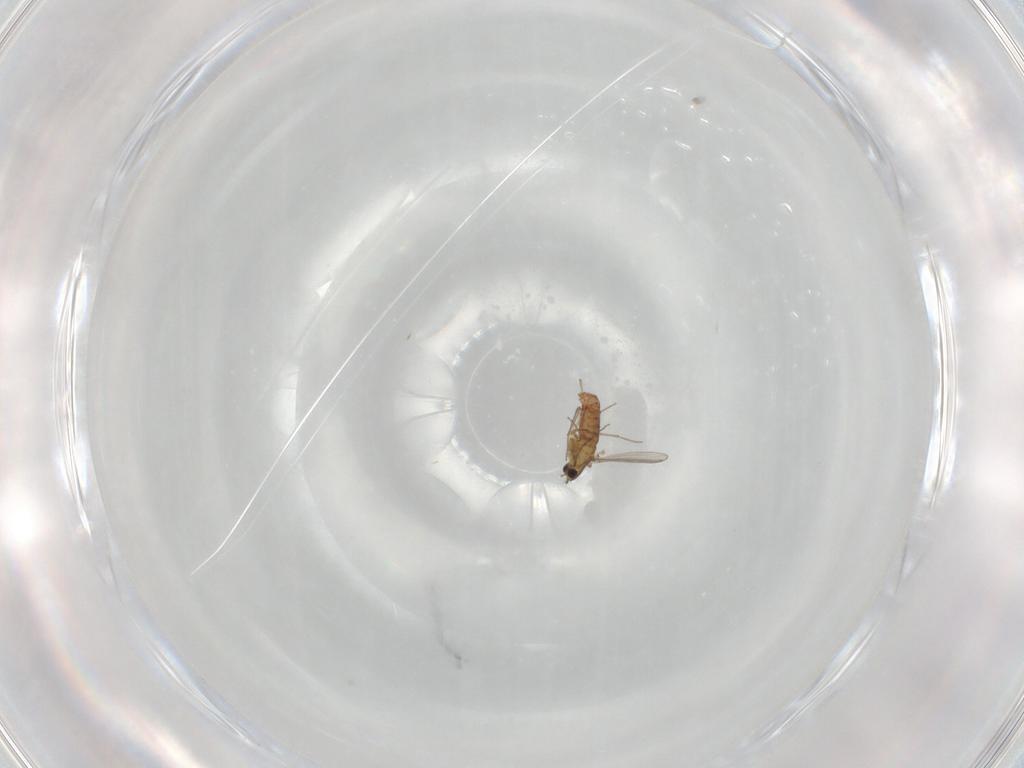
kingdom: Animalia
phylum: Arthropoda
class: Insecta
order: Diptera
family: Chironomidae
